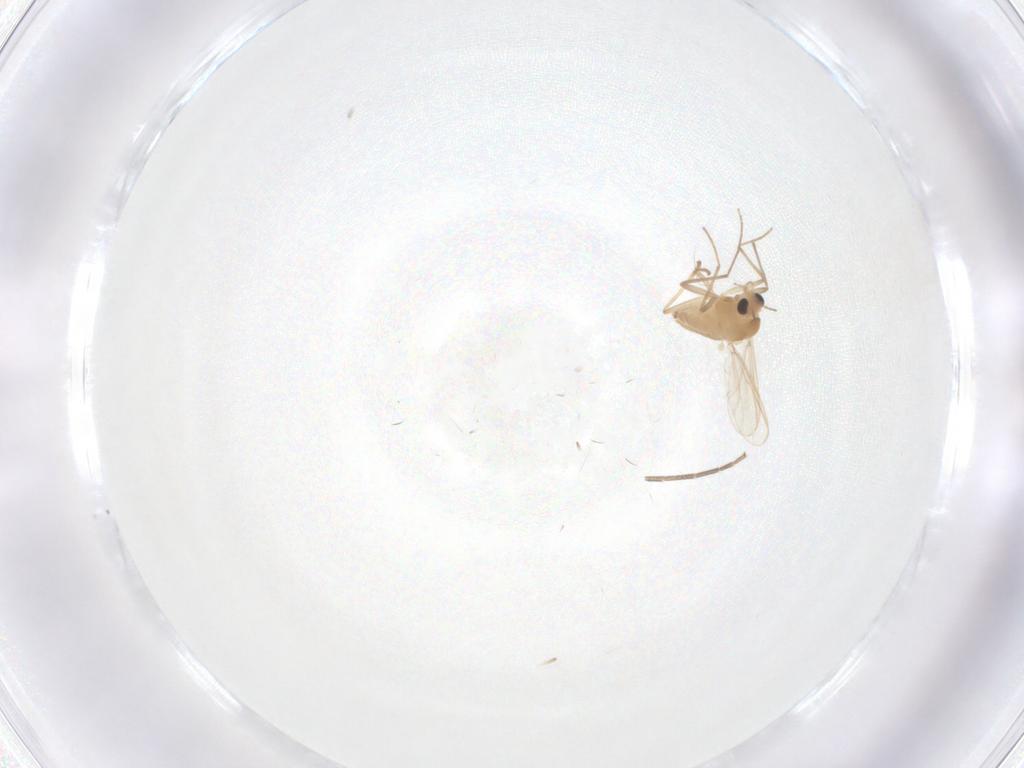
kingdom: Animalia
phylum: Arthropoda
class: Insecta
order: Diptera
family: Mycetophilidae
